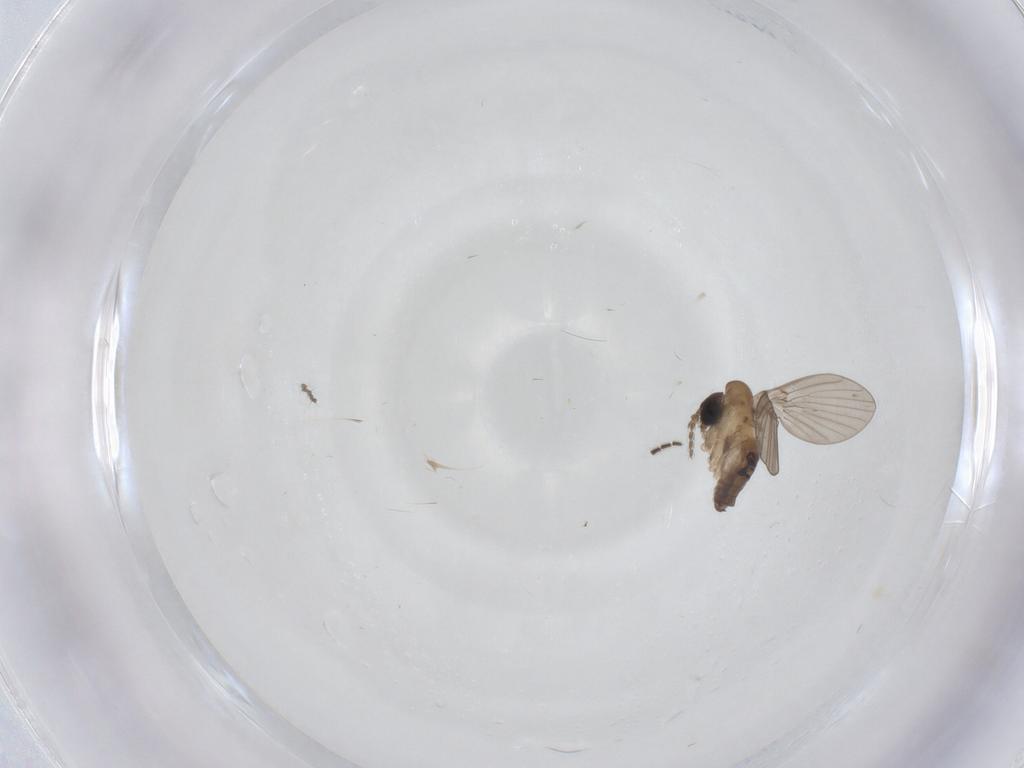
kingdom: Animalia
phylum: Arthropoda
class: Insecta
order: Diptera
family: Sciaridae
